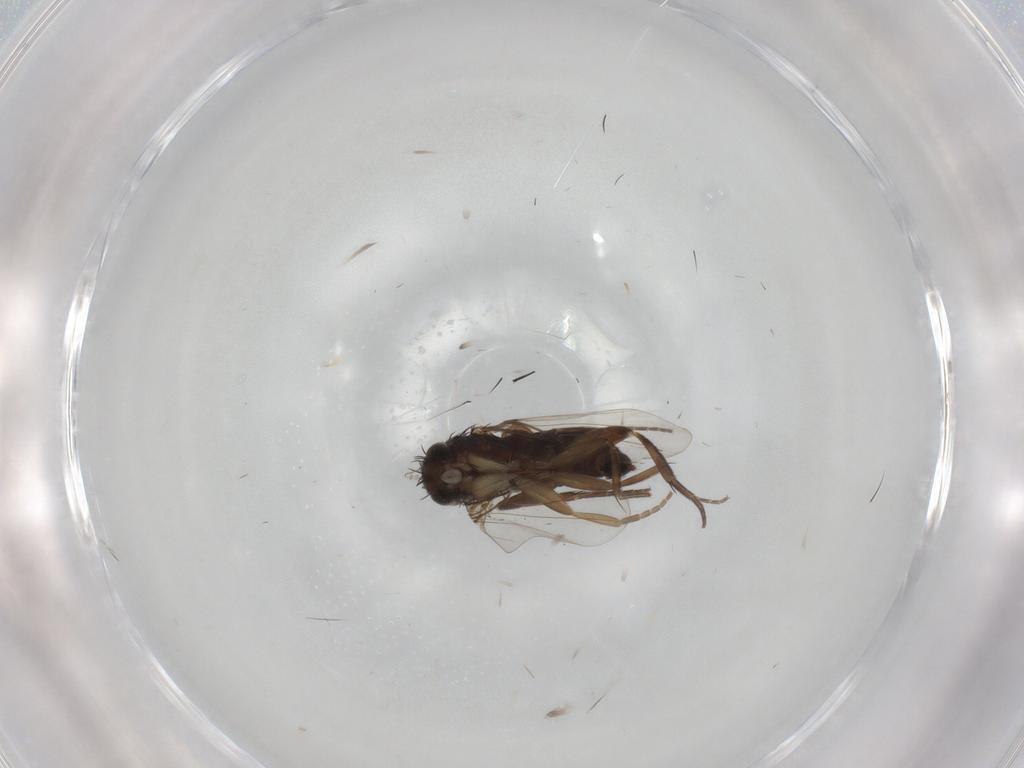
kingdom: Animalia
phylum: Arthropoda
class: Insecta
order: Diptera
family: Phoridae
